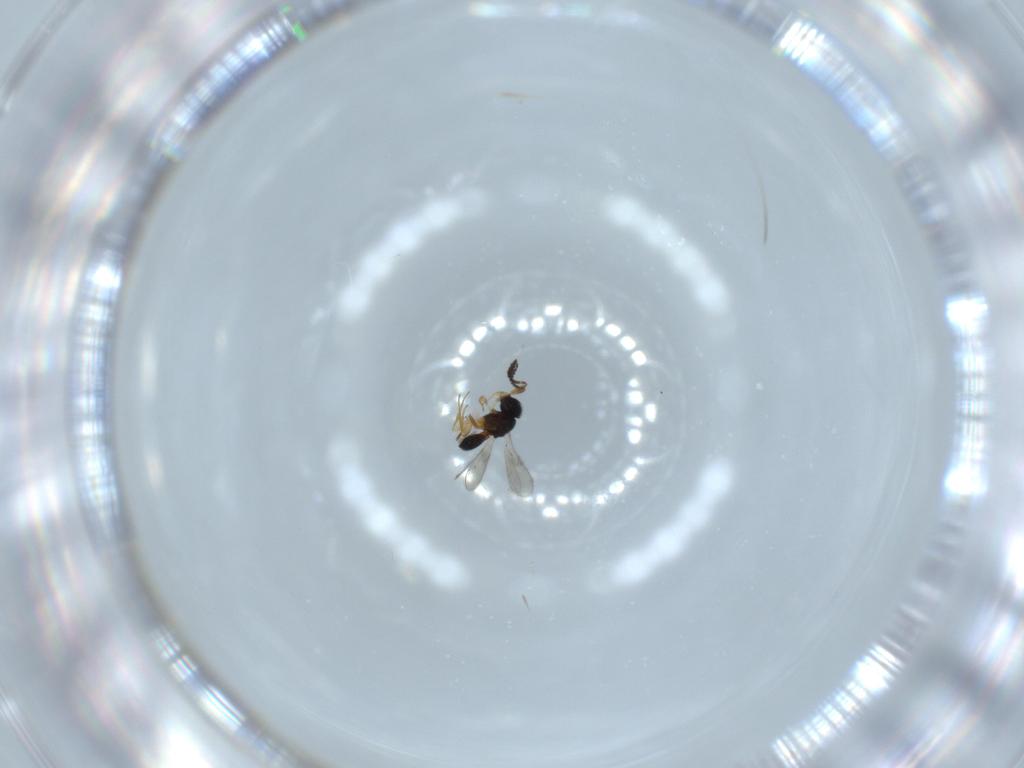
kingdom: Animalia
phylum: Arthropoda
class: Insecta
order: Hymenoptera
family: Scelionidae
